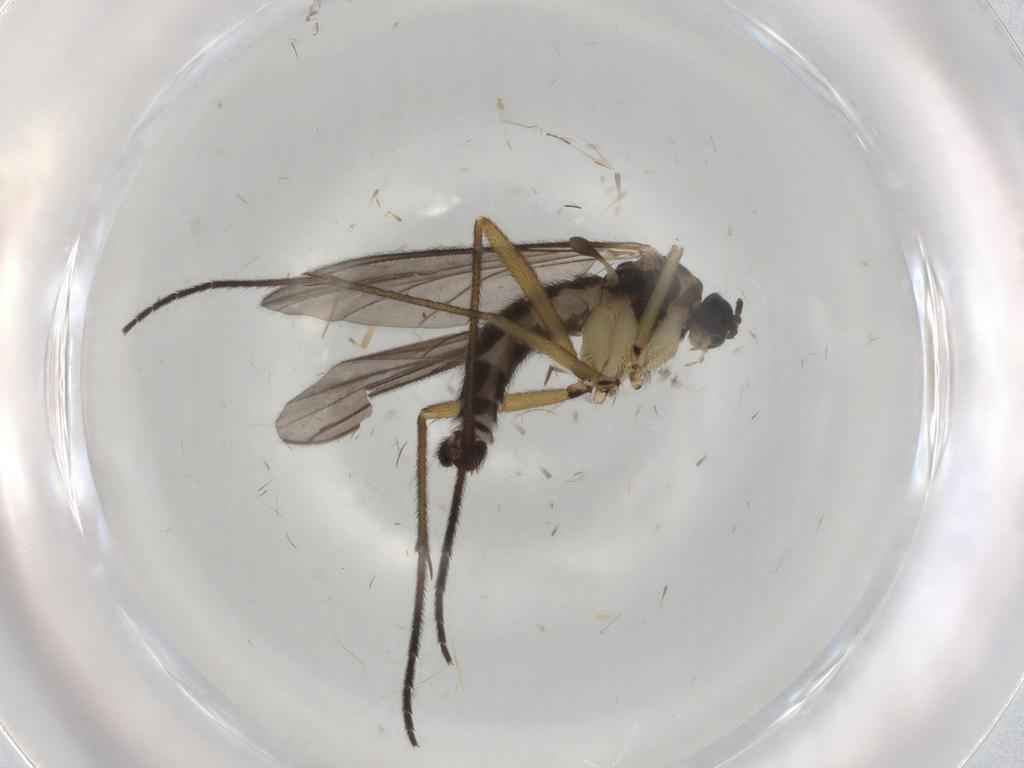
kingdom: Animalia
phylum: Arthropoda
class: Insecta
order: Diptera
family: Sciaridae
